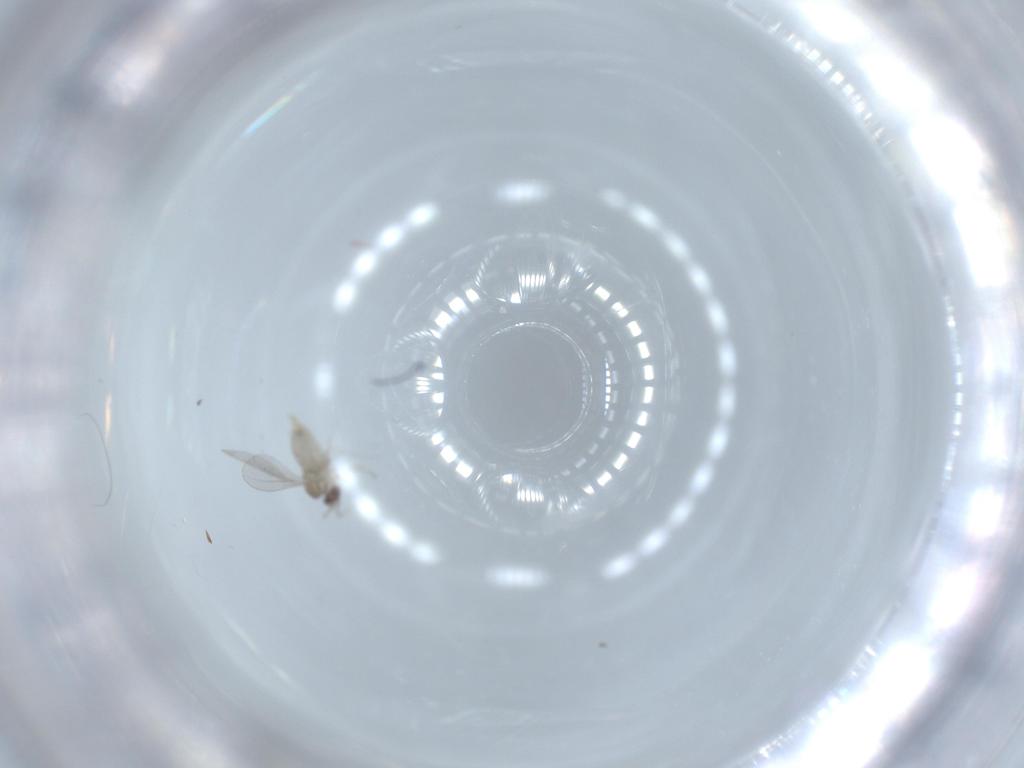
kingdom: Animalia
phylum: Arthropoda
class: Insecta
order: Diptera
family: Cecidomyiidae
